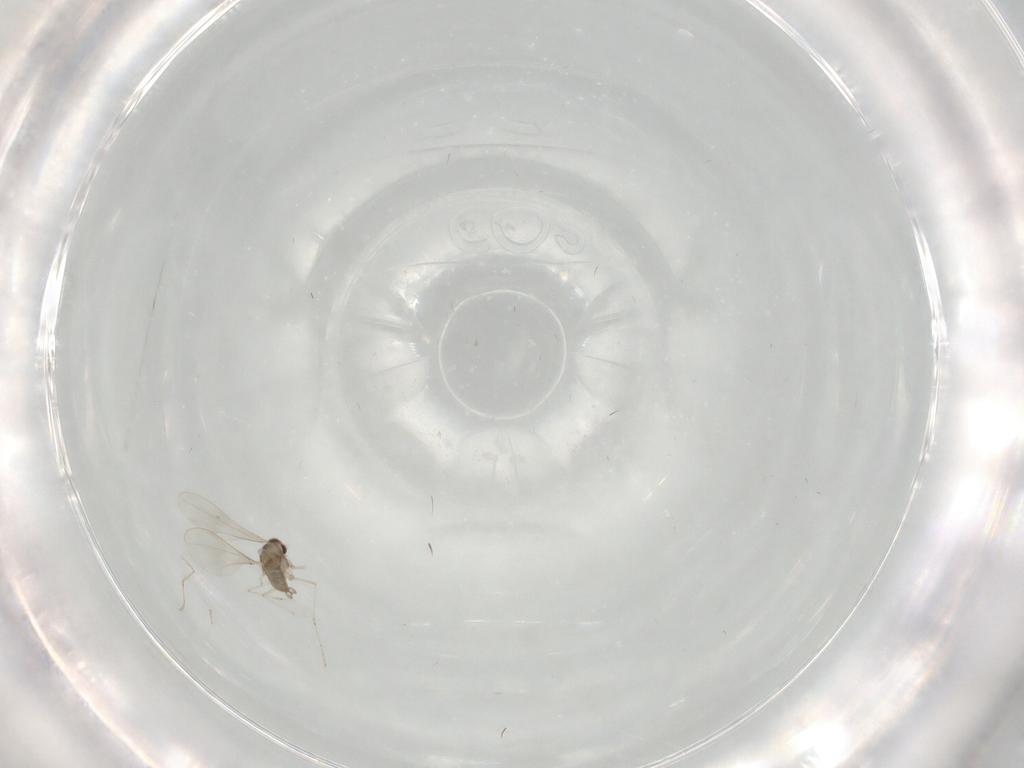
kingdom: Animalia
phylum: Arthropoda
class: Insecta
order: Diptera
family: Cecidomyiidae
